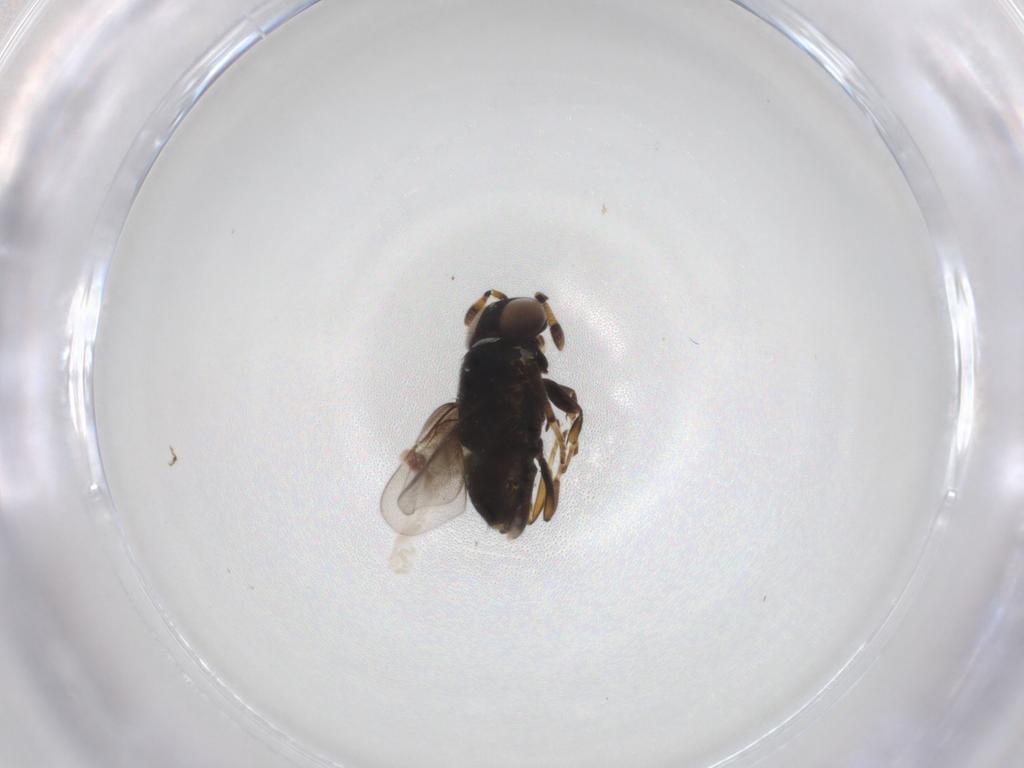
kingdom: Animalia
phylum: Arthropoda
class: Insecta
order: Hymenoptera
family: Encyrtidae
